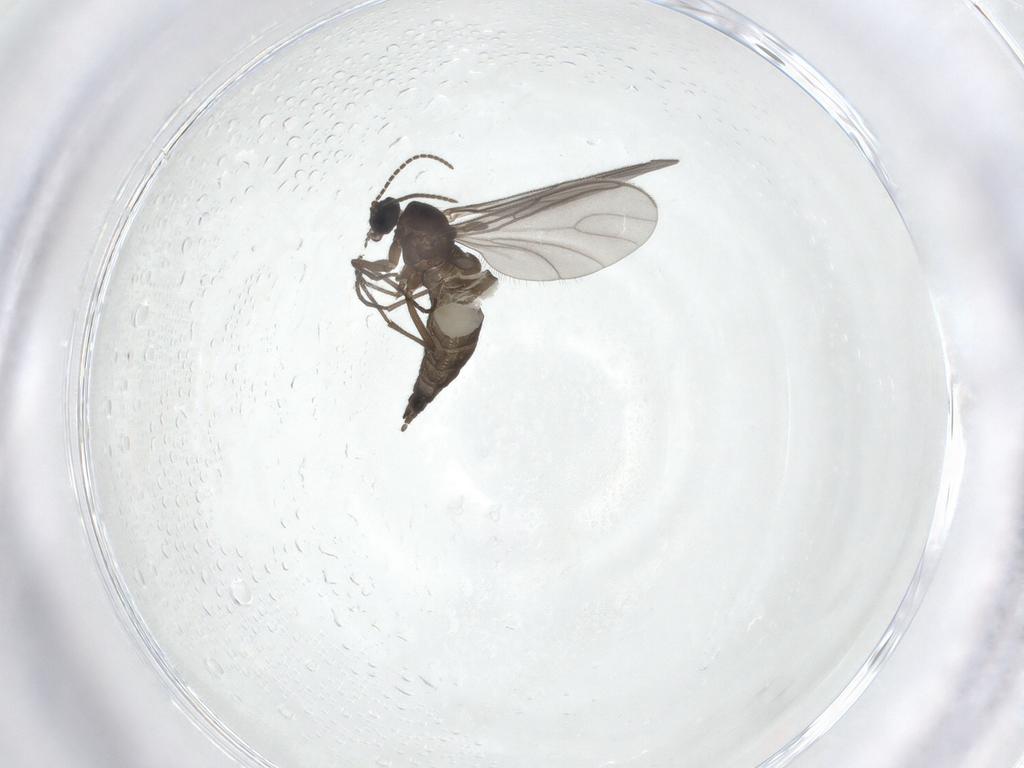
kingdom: Animalia
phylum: Arthropoda
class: Insecta
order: Diptera
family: Sciaridae
